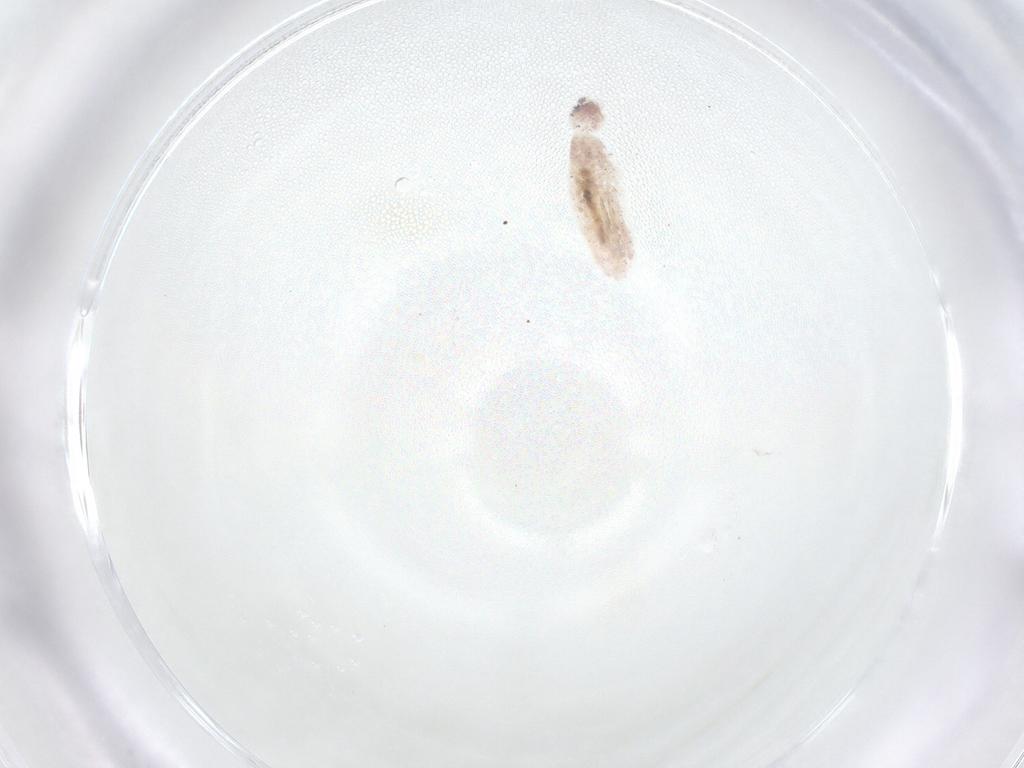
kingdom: Animalia
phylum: Arthropoda
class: Collembola
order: Entomobryomorpha
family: Entomobryidae
